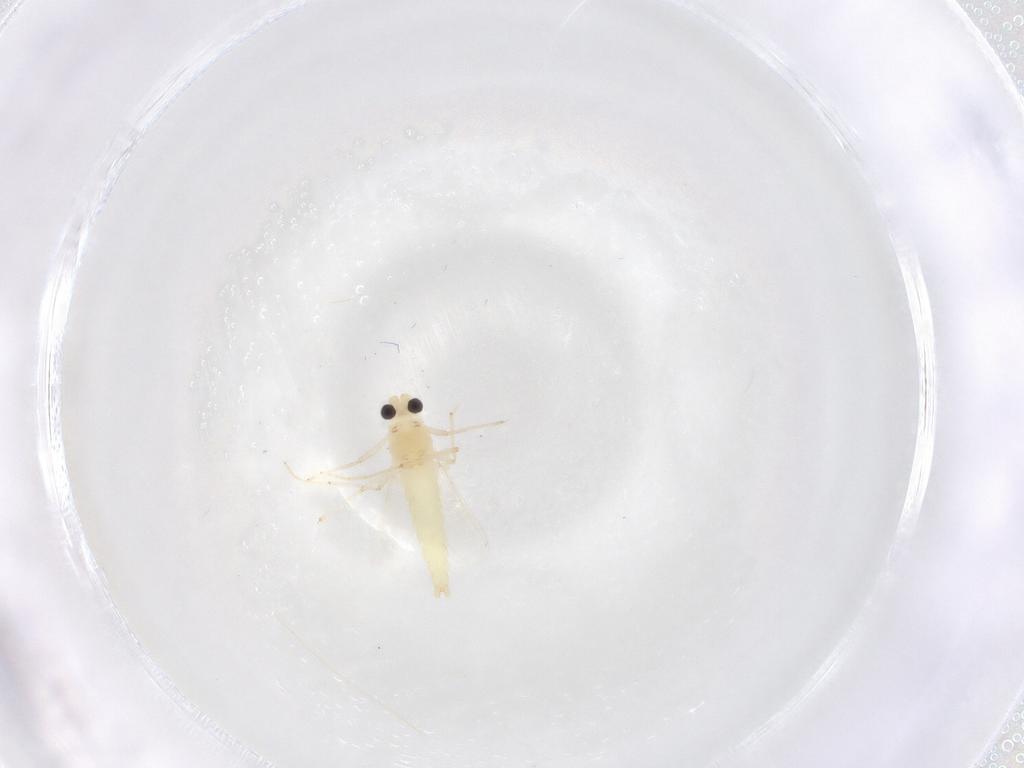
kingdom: Animalia
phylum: Arthropoda
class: Insecta
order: Diptera
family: Chironomidae
